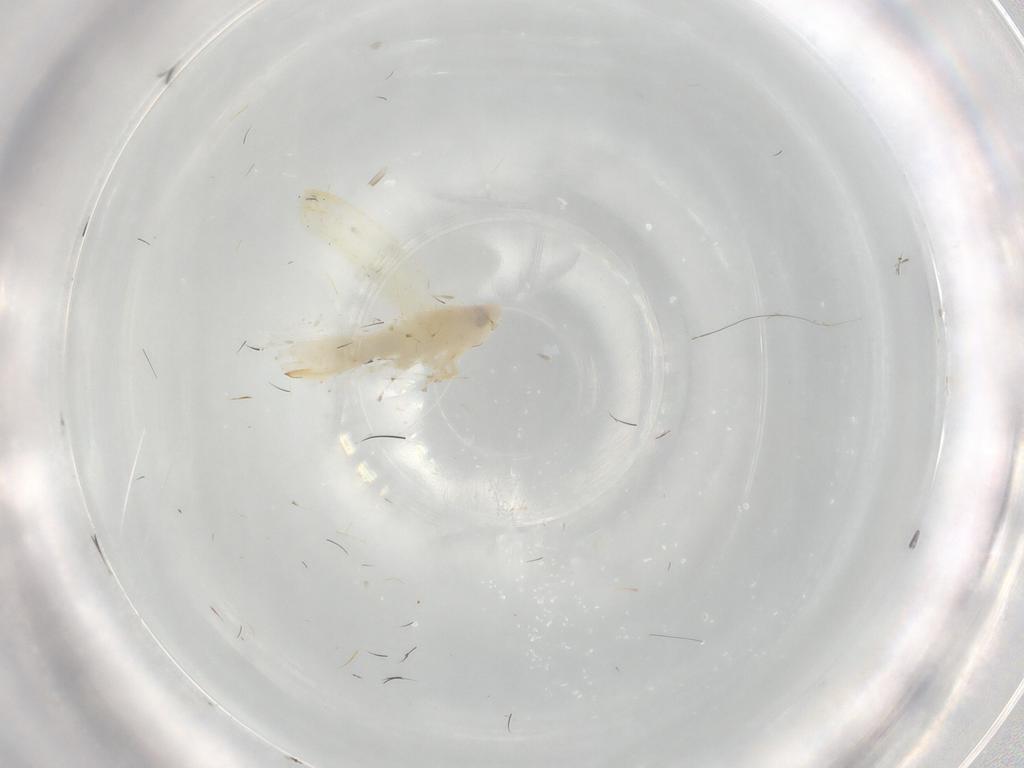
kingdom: Animalia
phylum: Arthropoda
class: Insecta
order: Hemiptera
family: Cicadellidae
